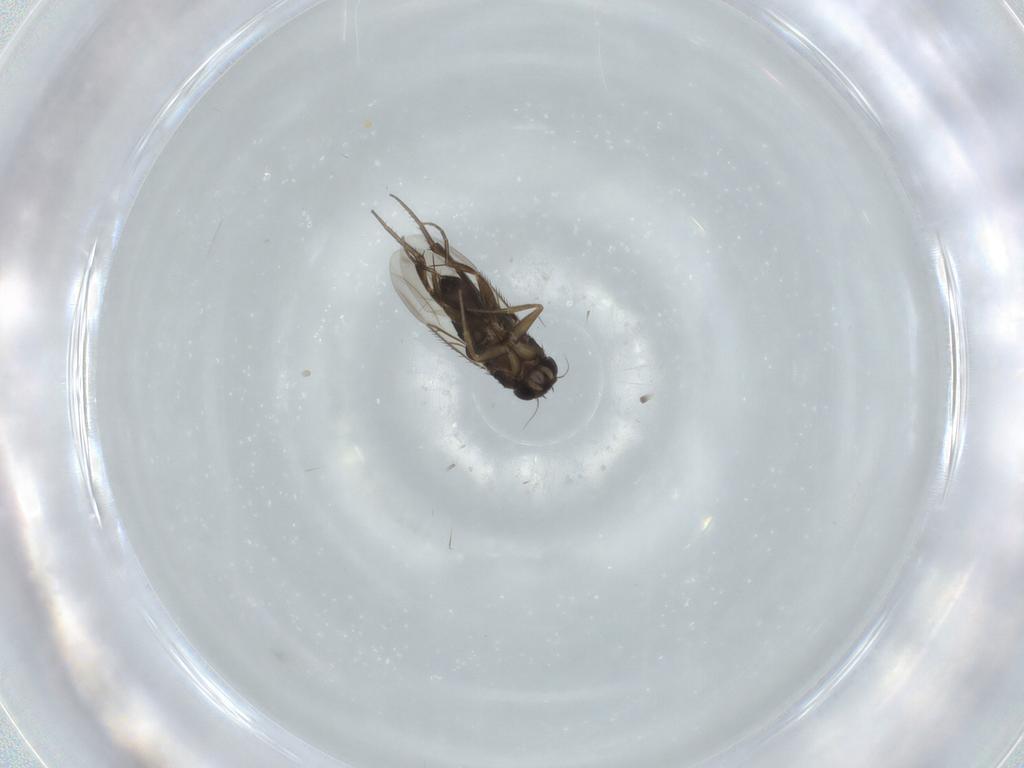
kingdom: Animalia
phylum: Arthropoda
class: Insecta
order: Diptera
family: Phoridae
